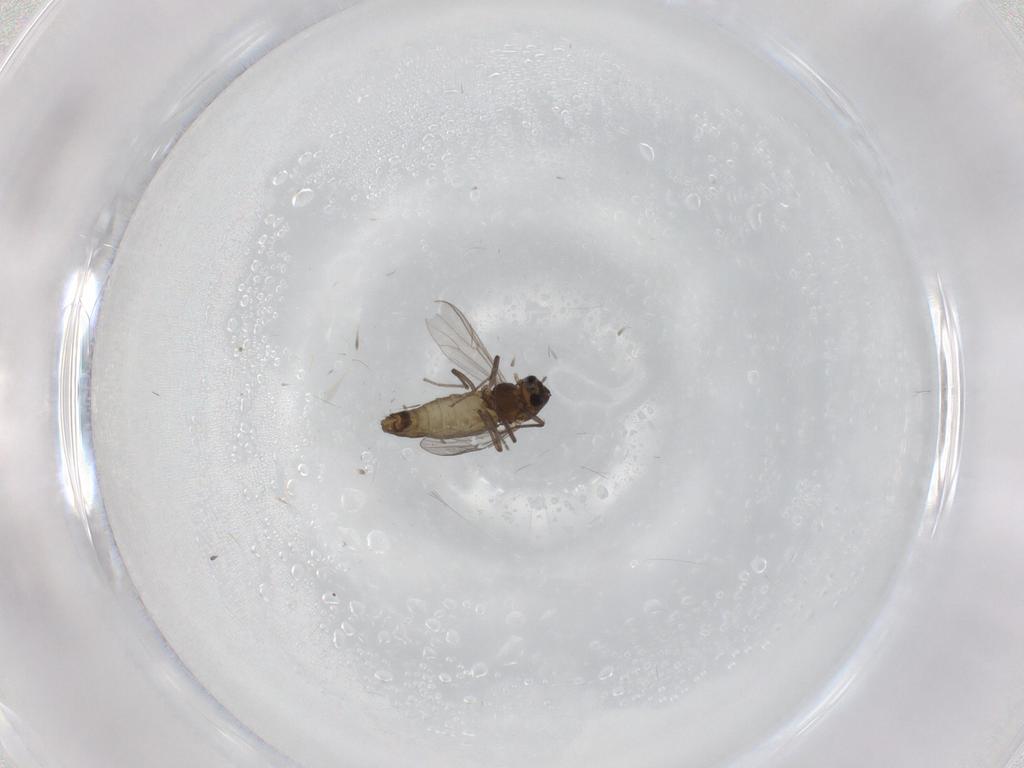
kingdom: Animalia
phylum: Arthropoda
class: Insecta
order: Diptera
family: Chironomidae
